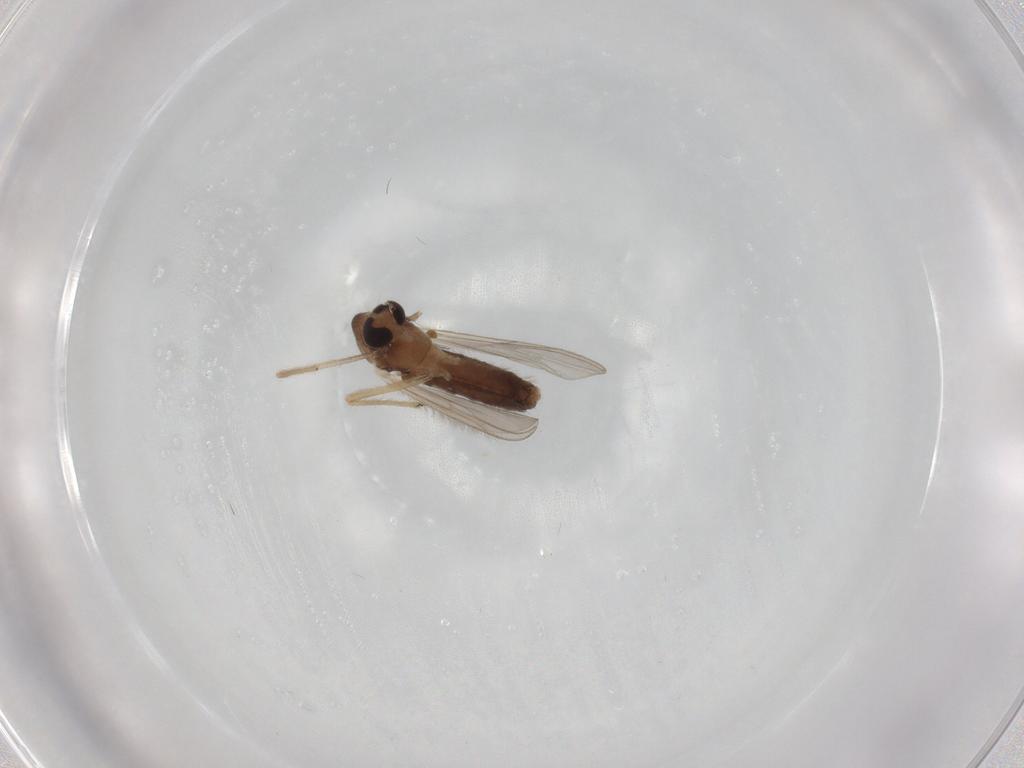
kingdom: Animalia
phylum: Arthropoda
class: Insecta
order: Diptera
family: Chironomidae
